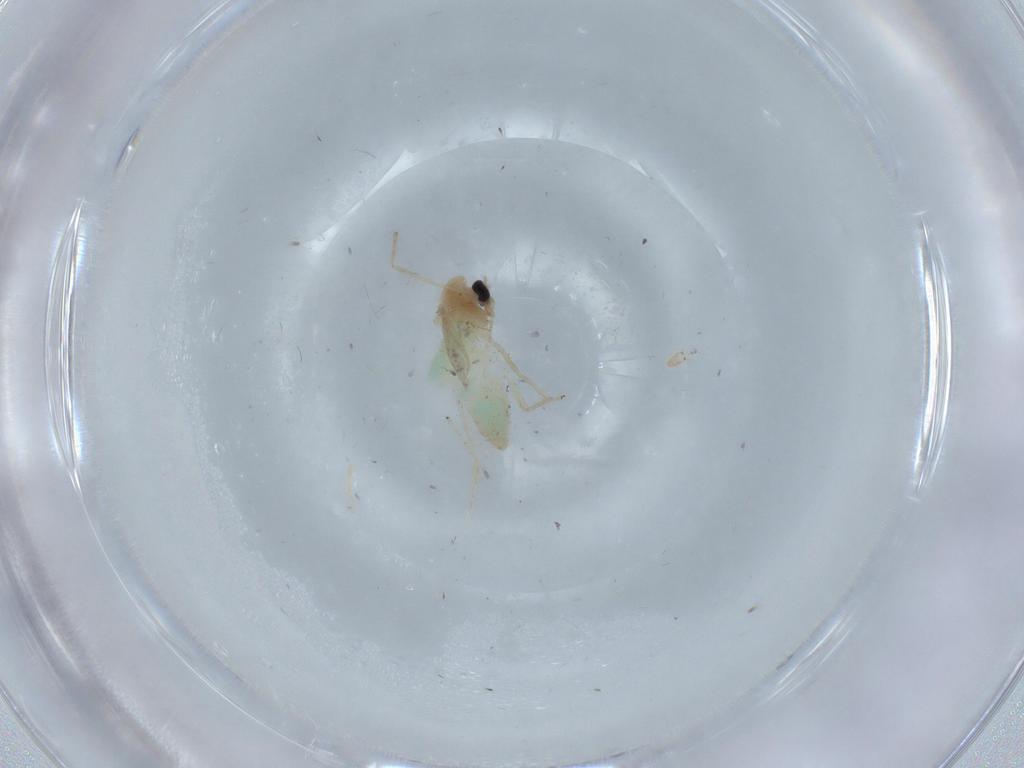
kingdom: Animalia
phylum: Arthropoda
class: Insecta
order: Diptera
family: Chironomidae
